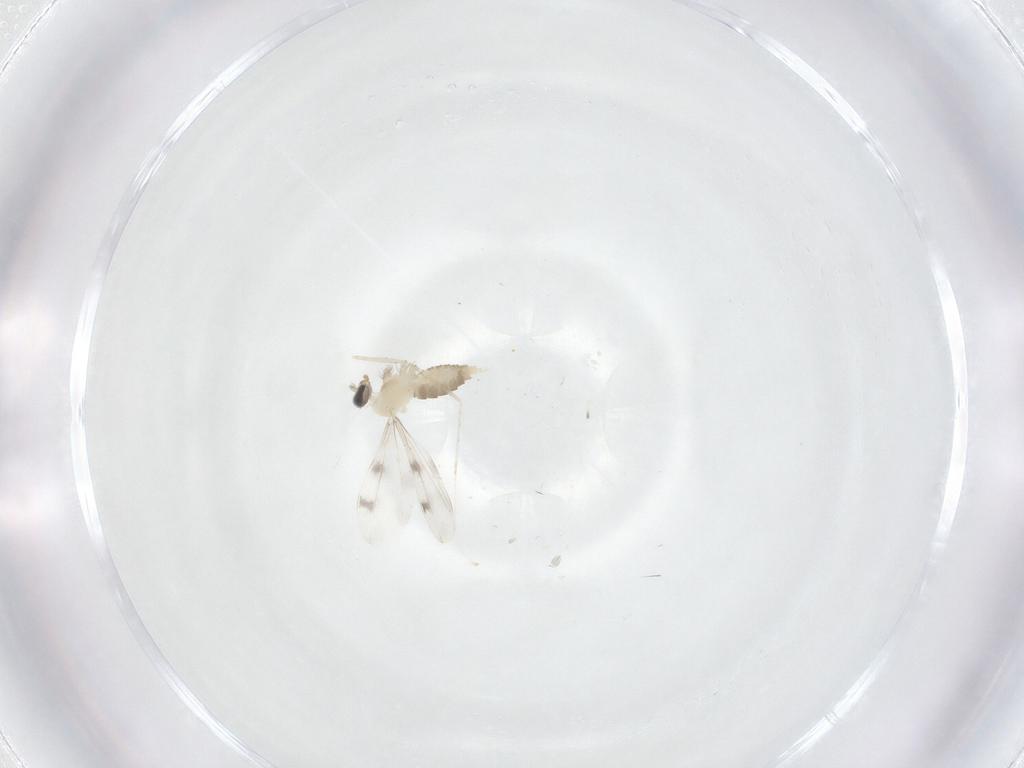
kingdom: Animalia
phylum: Arthropoda
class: Insecta
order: Diptera
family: Cecidomyiidae
